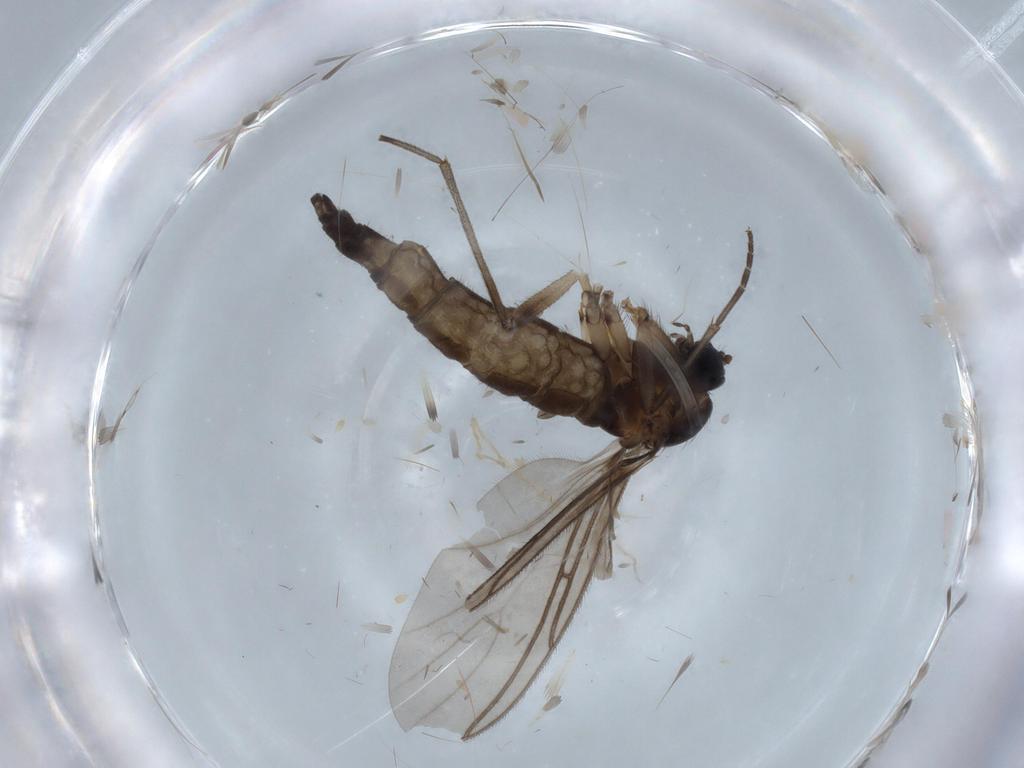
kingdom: Animalia
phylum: Arthropoda
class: Insecta
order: Diptera
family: Sciaridae
